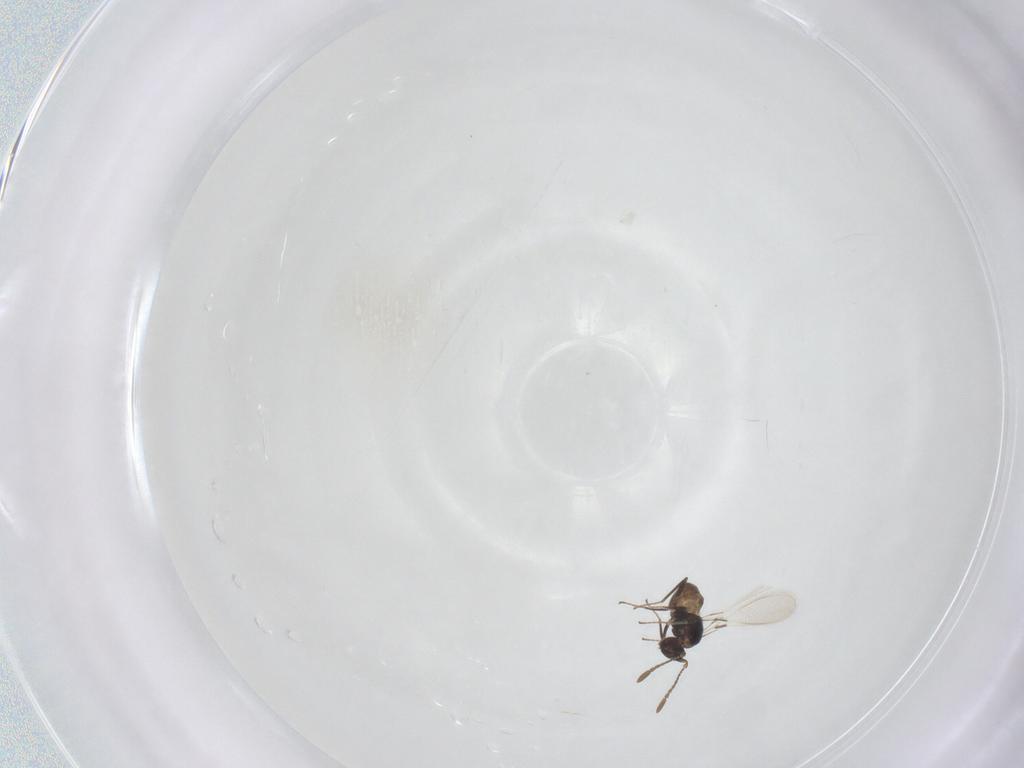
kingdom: Animalia
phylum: Arthropoda
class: Insecta
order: Hymenoptera
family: Mymaridae
